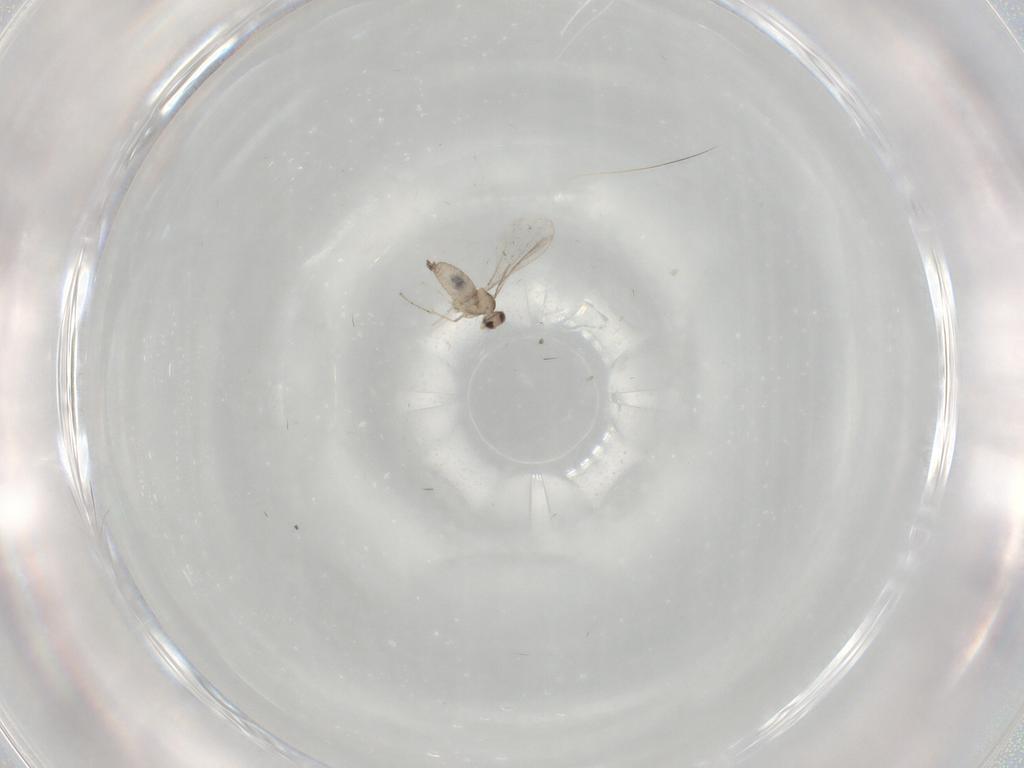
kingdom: Animalia
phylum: Arthropoda
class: Insecta
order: Diptera
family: Cecidomyiidae
